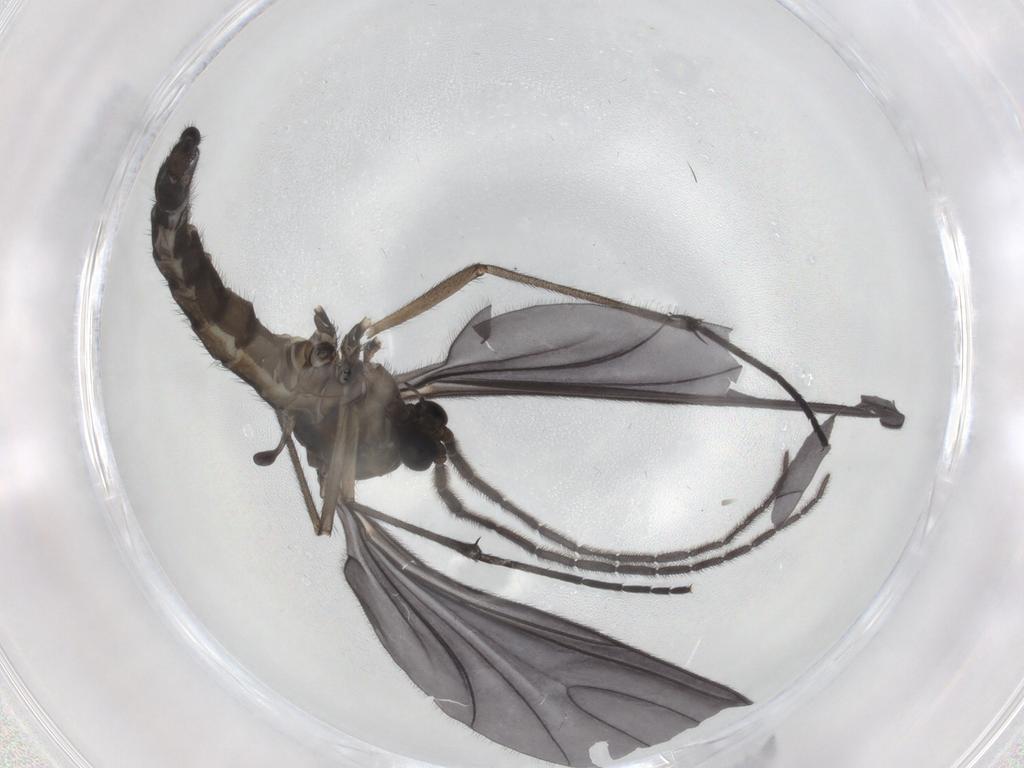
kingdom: Animalia
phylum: Arthropoda
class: Insecta
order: Diptera
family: Sciaridae
